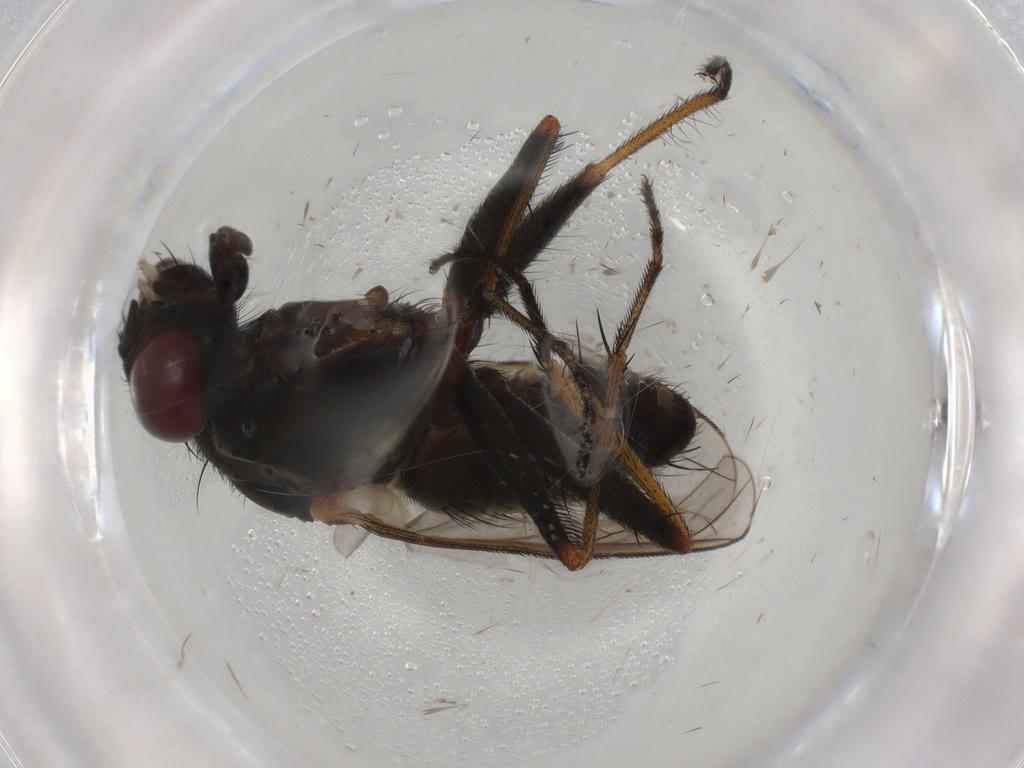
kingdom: Animalia
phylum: Arthropoda
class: Insecta
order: Diptera
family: Muscidae
